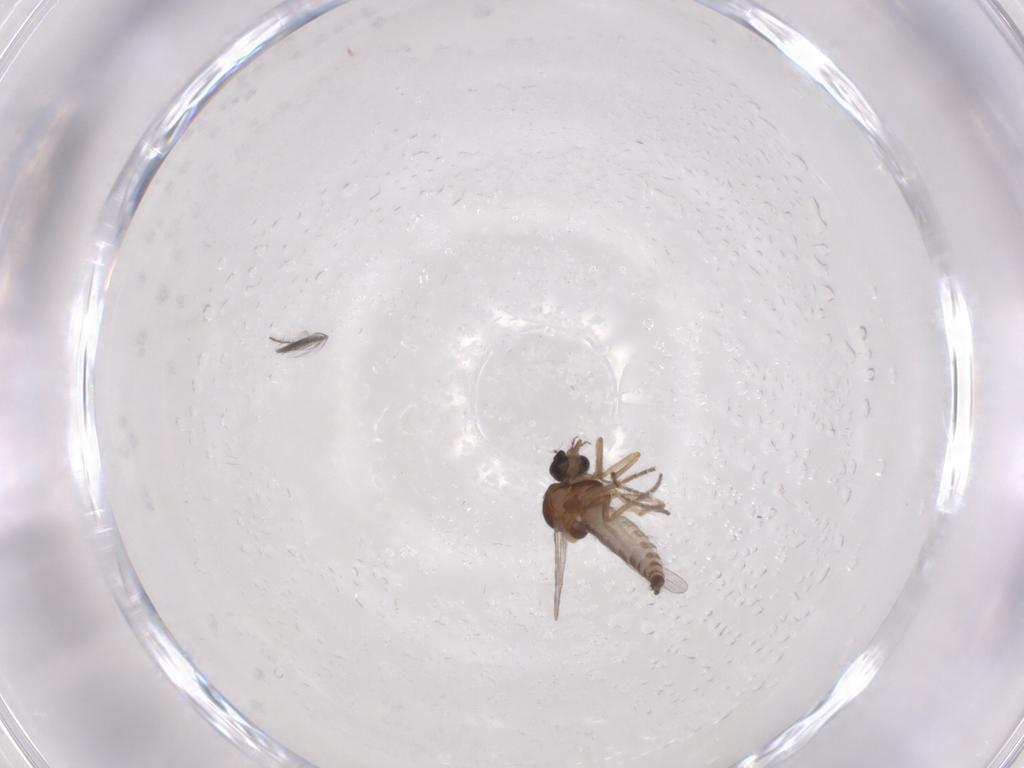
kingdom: Animalia
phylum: Arthropoda
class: Insecta
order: Diptera
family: Ceratopogonidae
